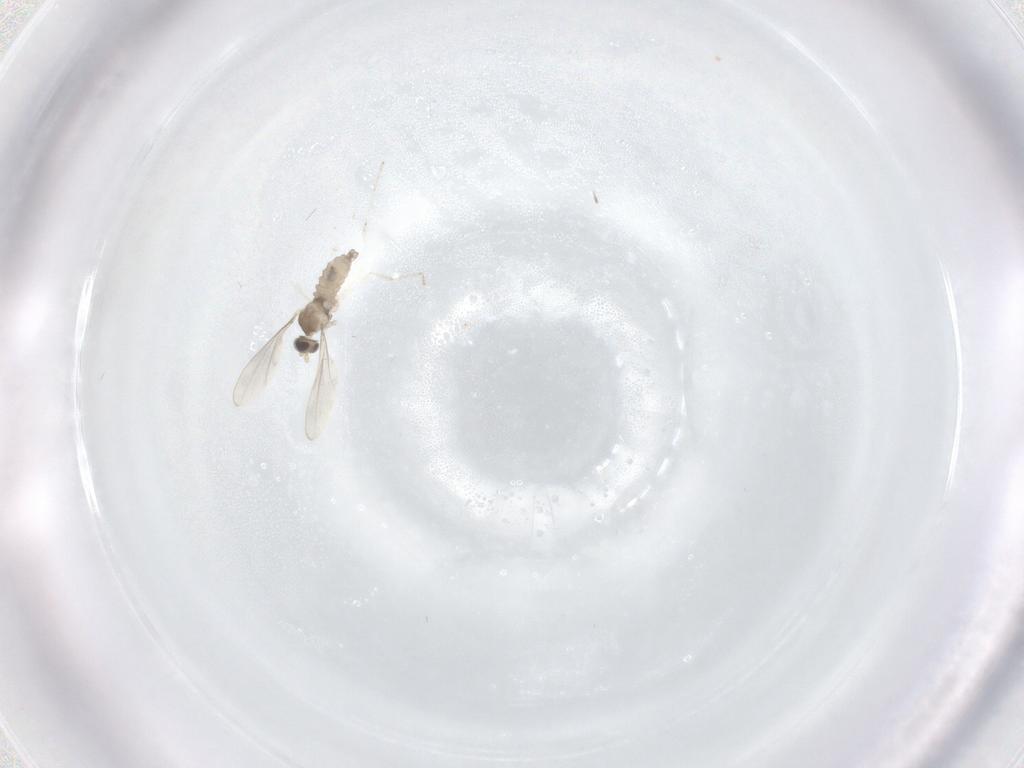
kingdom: Animalia
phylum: Arthropoda
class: Insecta
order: Diptera
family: Cecidomyiidae
